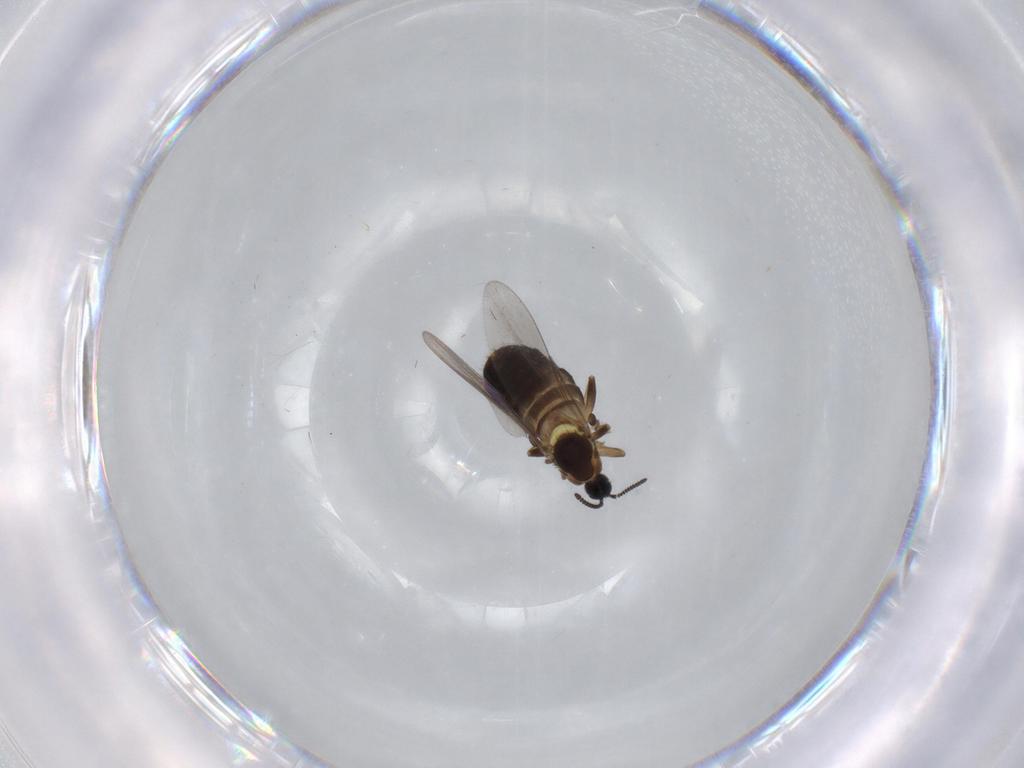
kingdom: Animalia
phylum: Arthropoda
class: Insecta
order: Diptera
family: Scatopsidae
